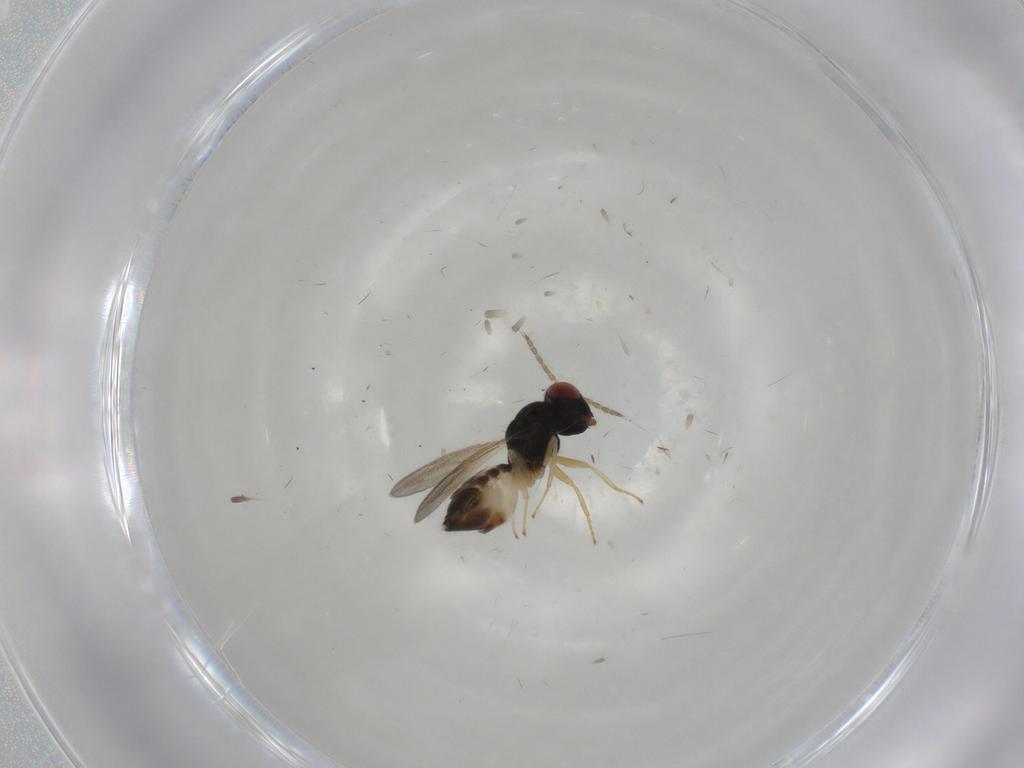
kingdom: Animalia
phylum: Arthropoda
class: Insecta
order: Hymenoptera
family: Eulophidae
